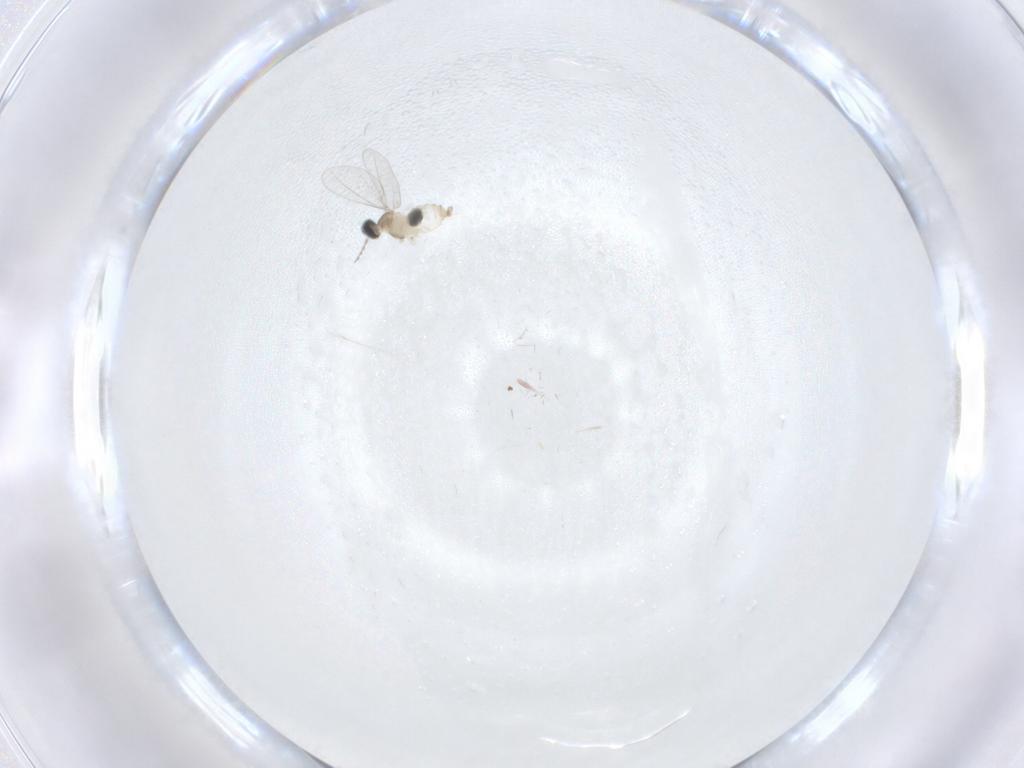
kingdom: Animalia
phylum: Arthropoda
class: Insecta
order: Diptera
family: Cecidomyiidae
